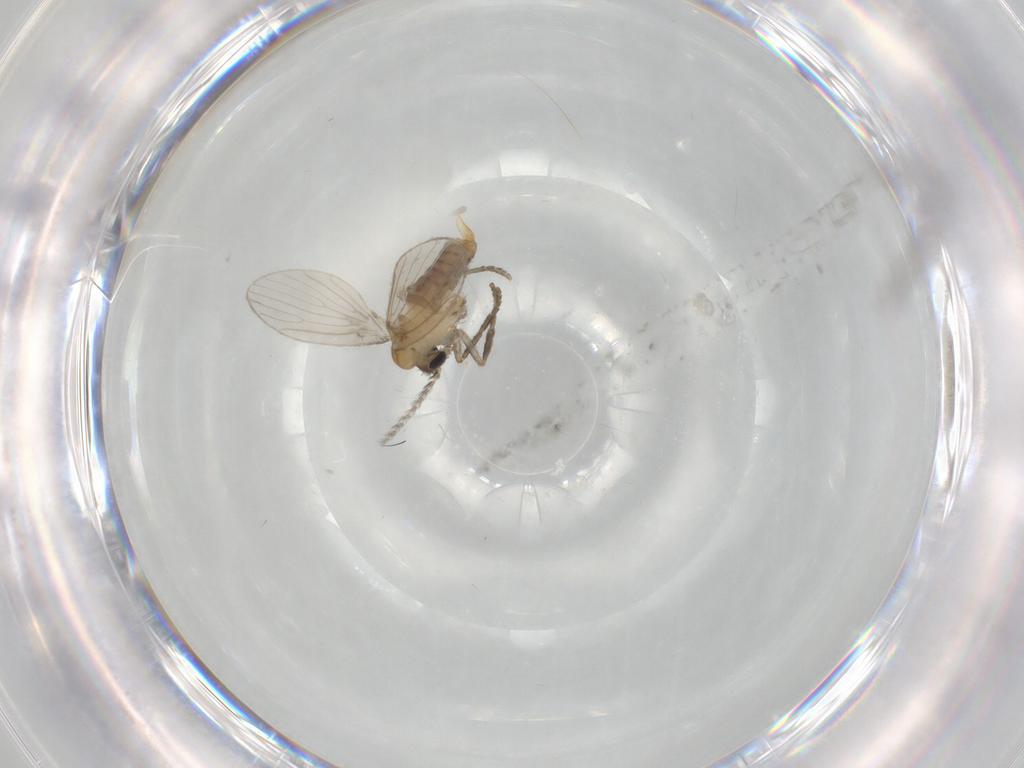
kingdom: Animalia
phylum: Arthropoda
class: Insecta
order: Diptera
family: Psychodidae
